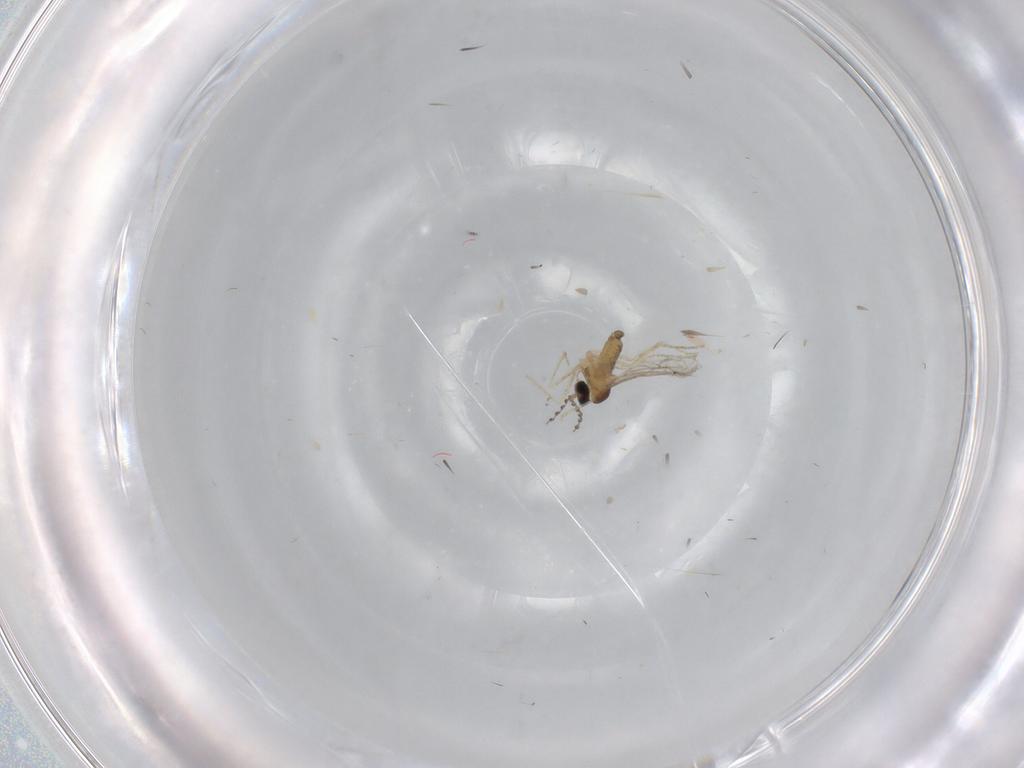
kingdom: Animalia
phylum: Arthropoda
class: Insecta
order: Diptera
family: Cecidomyiidae
